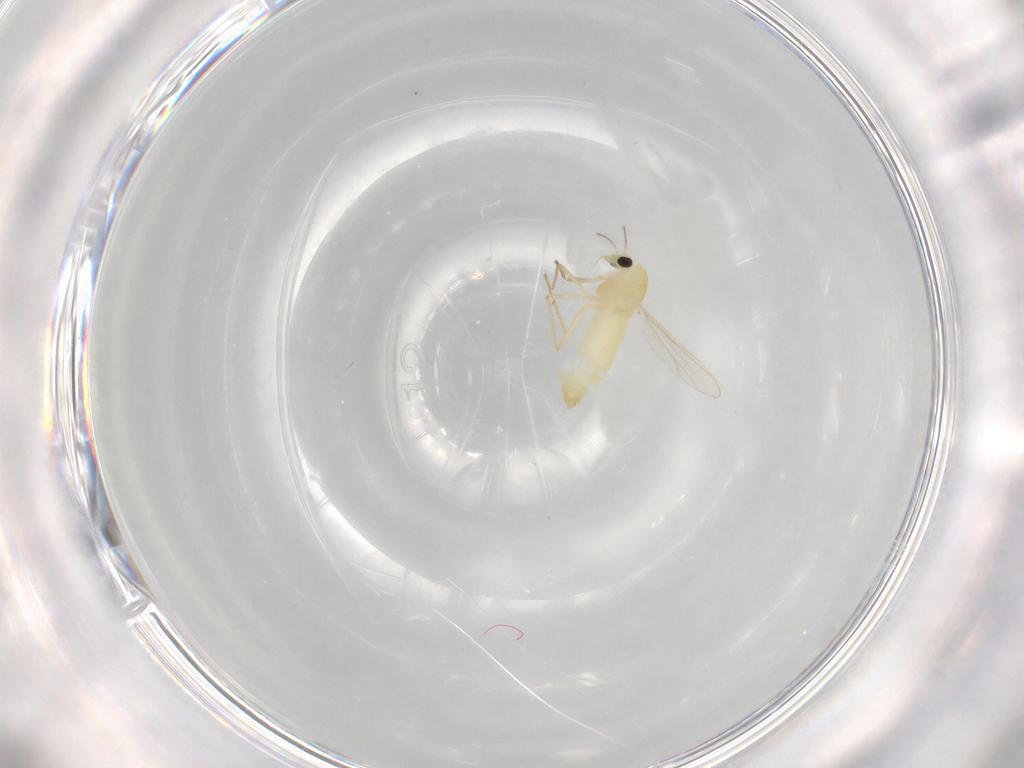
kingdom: Animalia
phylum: Arthropoda
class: Insecta
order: Diptera
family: Chironomidae
